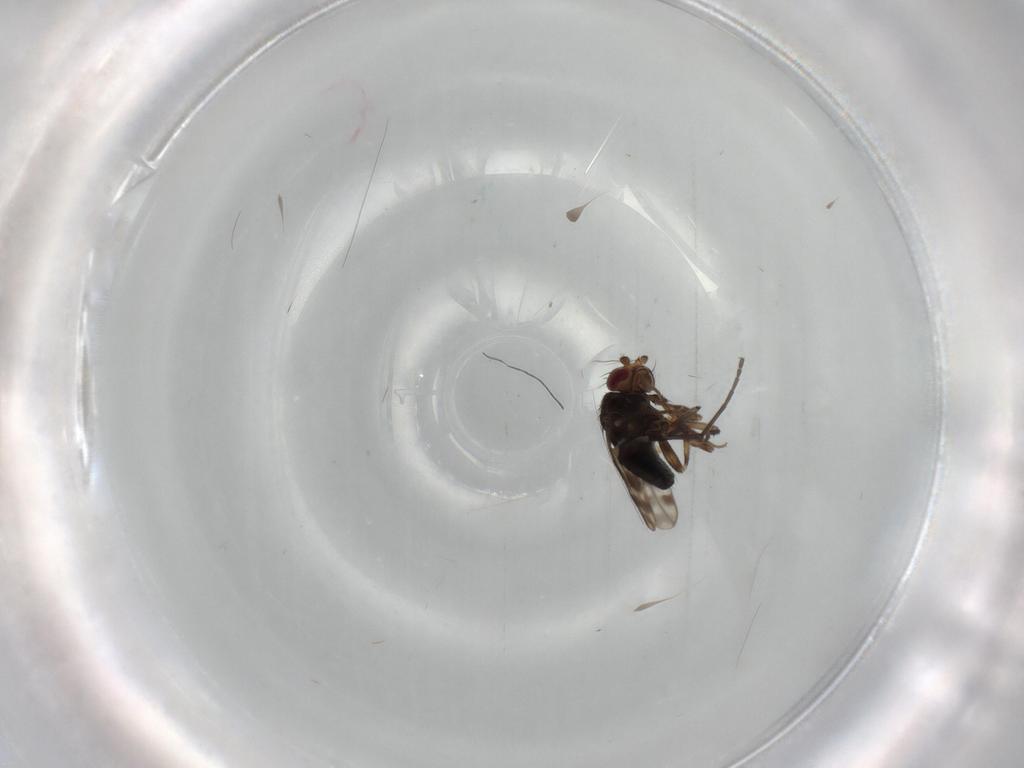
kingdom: Animalia
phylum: Arthropoda
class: Insecta
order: Diptera
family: Sphaeroceridae
